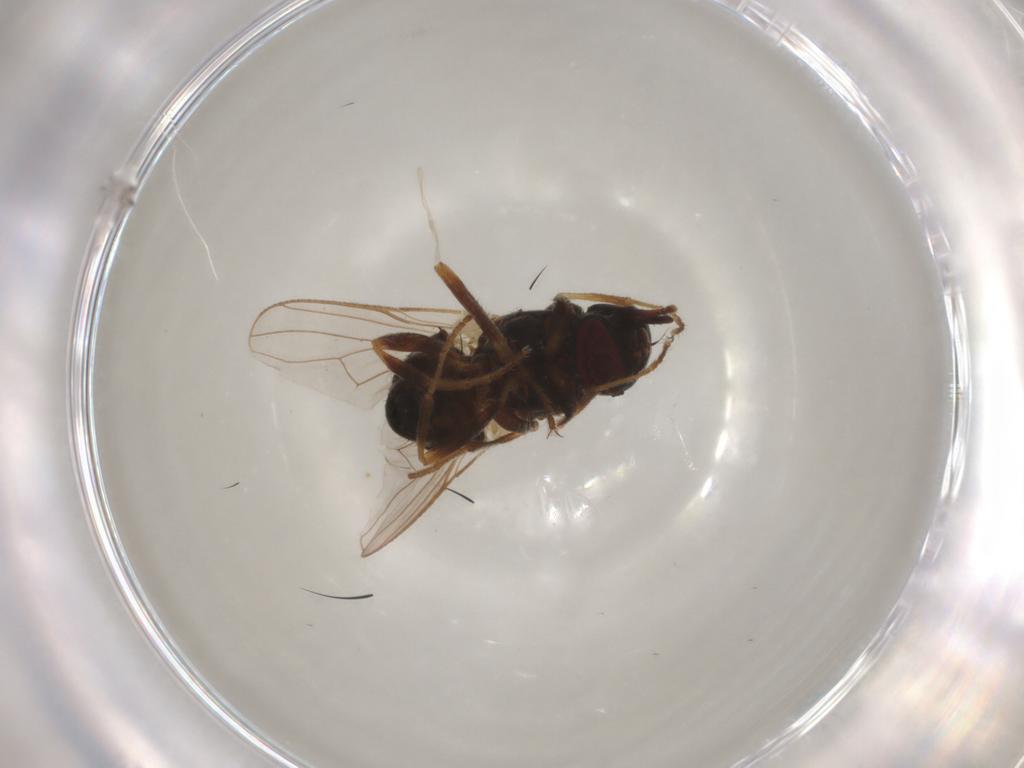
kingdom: Animalia
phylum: Arthropoda
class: Insecta
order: Diptera
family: Muscidae
